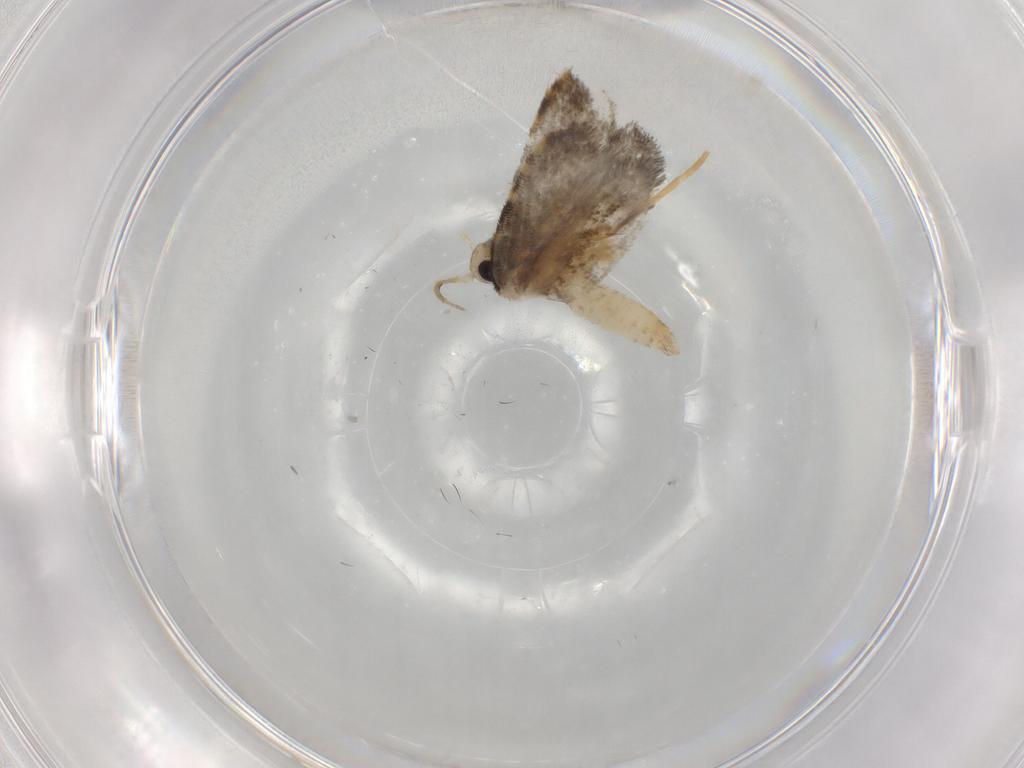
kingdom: Animalia
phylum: Arthropoda
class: Insecta
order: Lepidoptera
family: Psychidae
